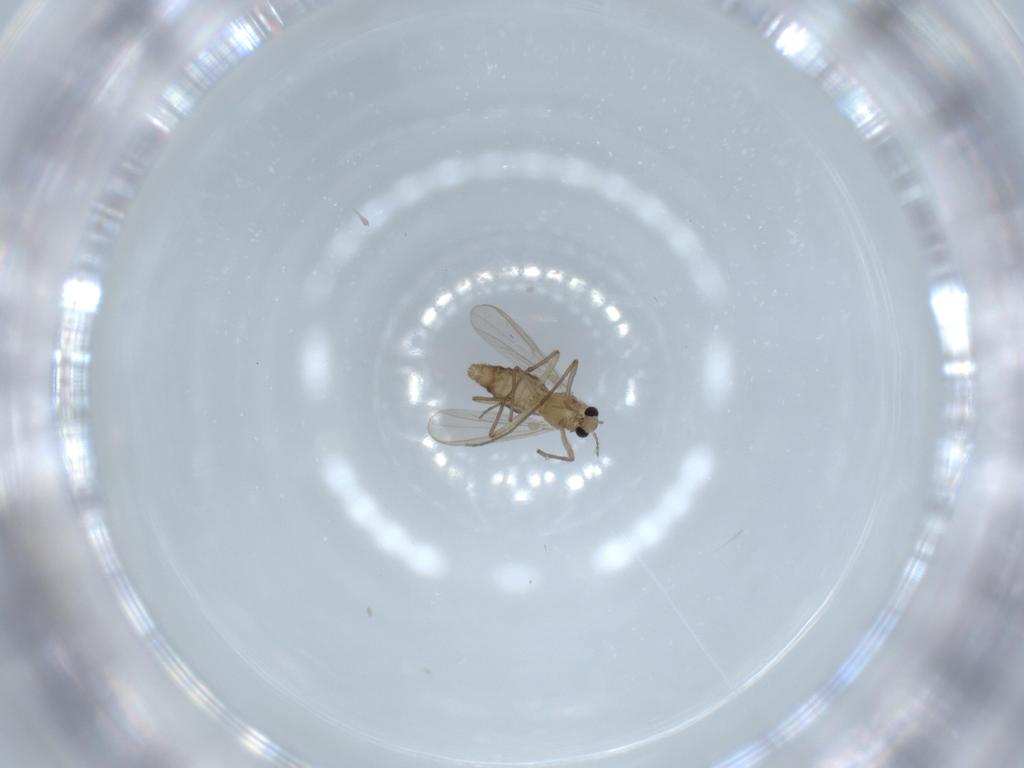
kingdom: Animalia
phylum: Arthropoda
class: Insecta
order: Diptera
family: Chironomidae
